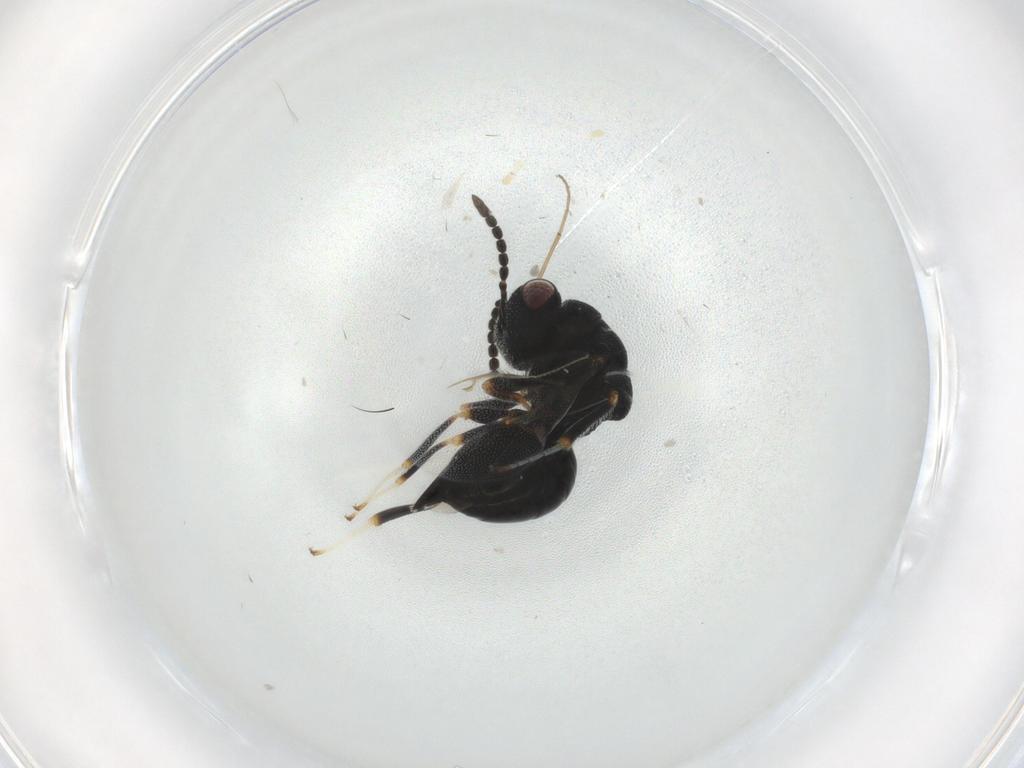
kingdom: Animalia
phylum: Arthropoda
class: Insecta
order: Hymenoptera
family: Eurytomidae
